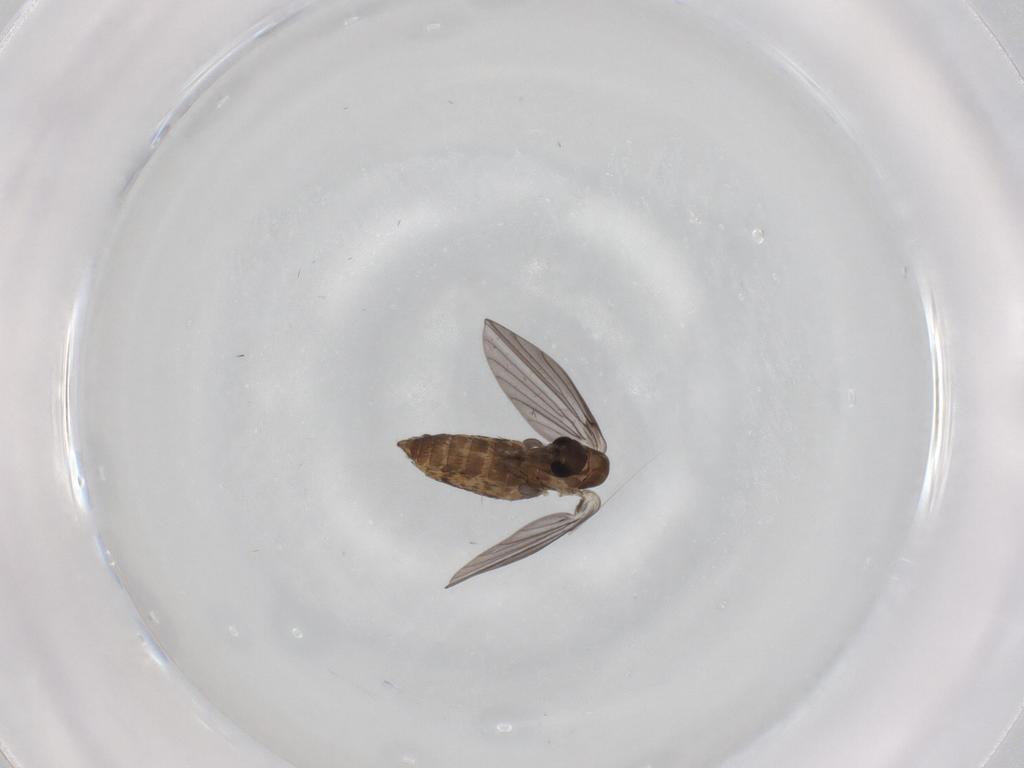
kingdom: Animalia
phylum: Arthropoda
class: Insecta
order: Diptera
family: Psychodidae
